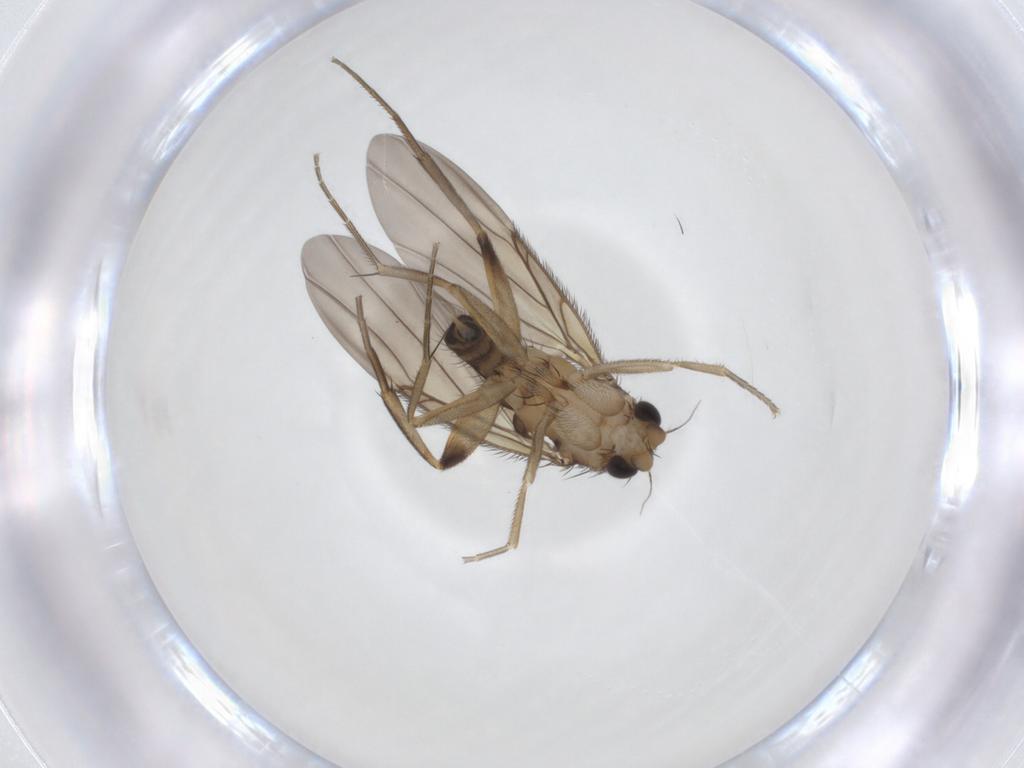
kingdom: Animalia
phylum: Arthropoda
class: Insecta
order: Diptera
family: Phoridae
